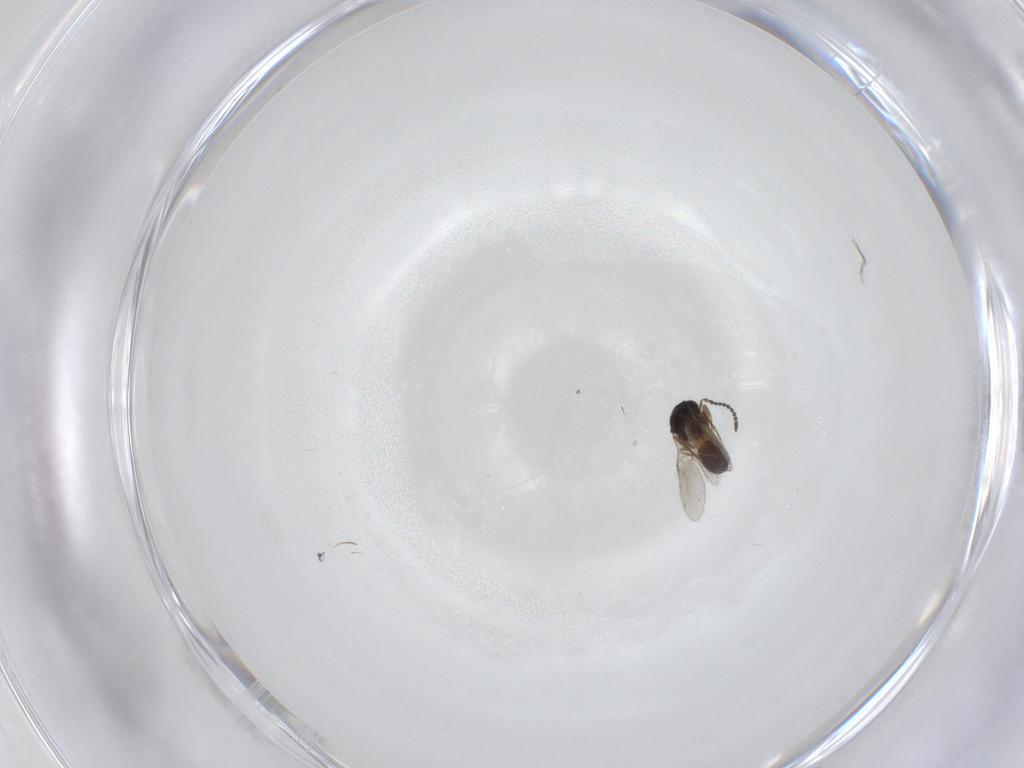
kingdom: Animalia
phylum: Arthropoda
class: Insecta
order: Hymenoptera
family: Scelionidae
